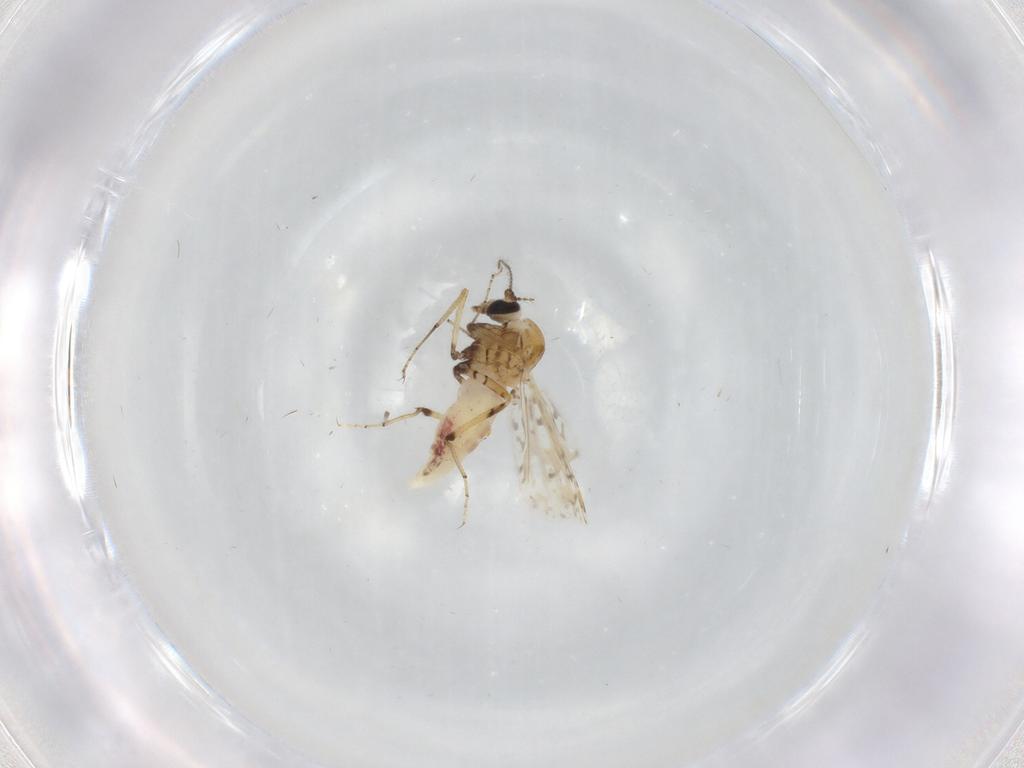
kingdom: Animalia
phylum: Arthropoda
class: Insecta
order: Diptera
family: Ceratopogonidae
